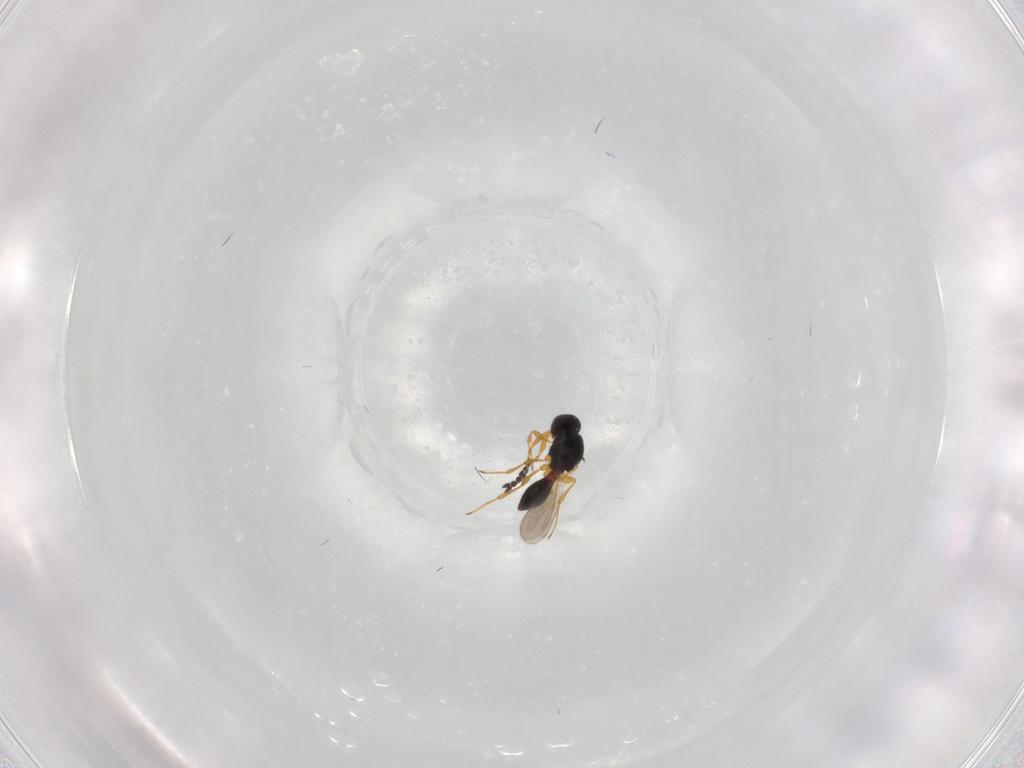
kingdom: Animalia
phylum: Arthropoda
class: Insecta
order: Hymenoptera
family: Platygastridae
